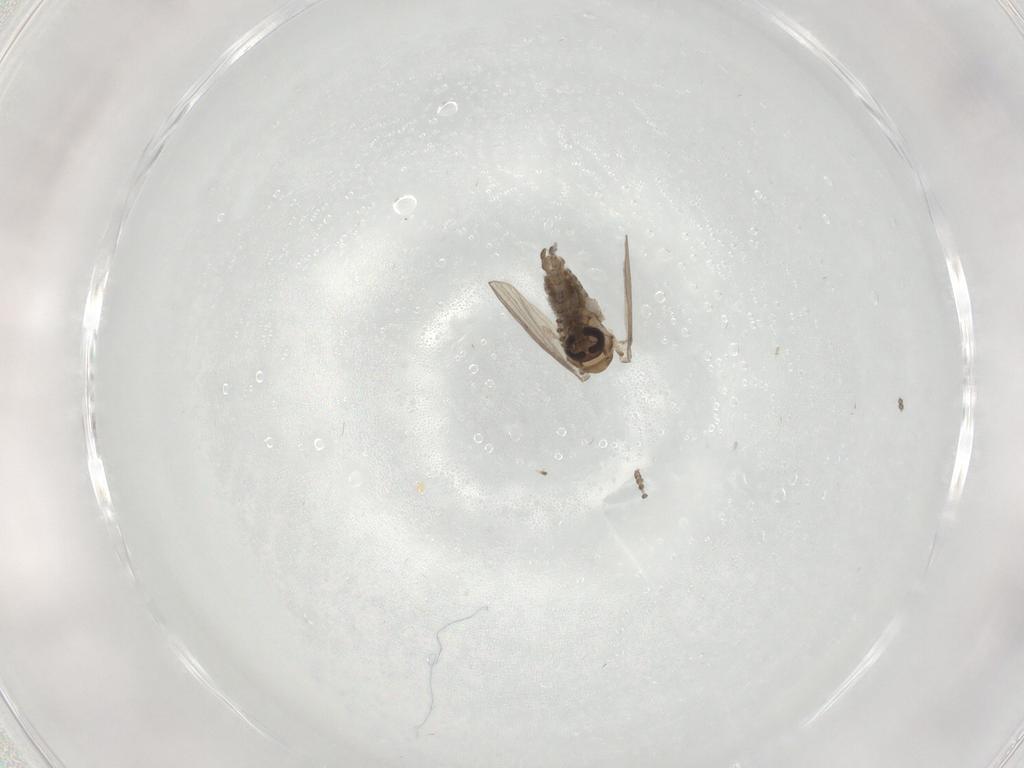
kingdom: Animalia
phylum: Arthropoda
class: Insecta
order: Diptera
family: Psychodidae
